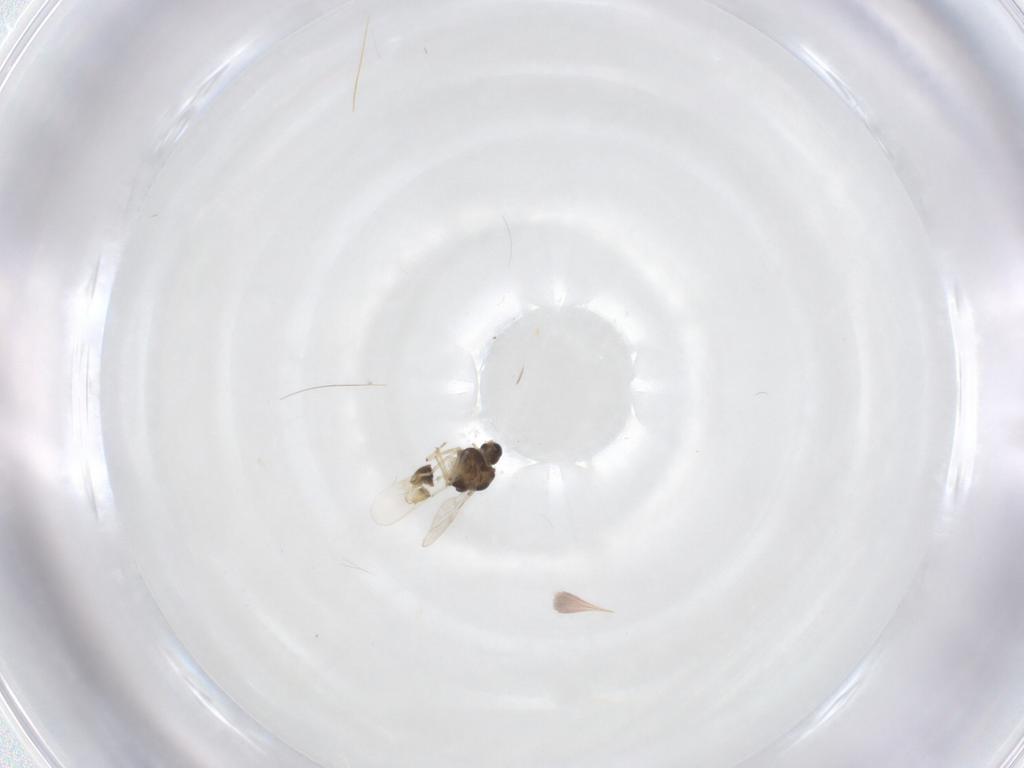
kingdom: Animalia
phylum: Arthropoda
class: Insecta
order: Diptera
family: Chironomidae
